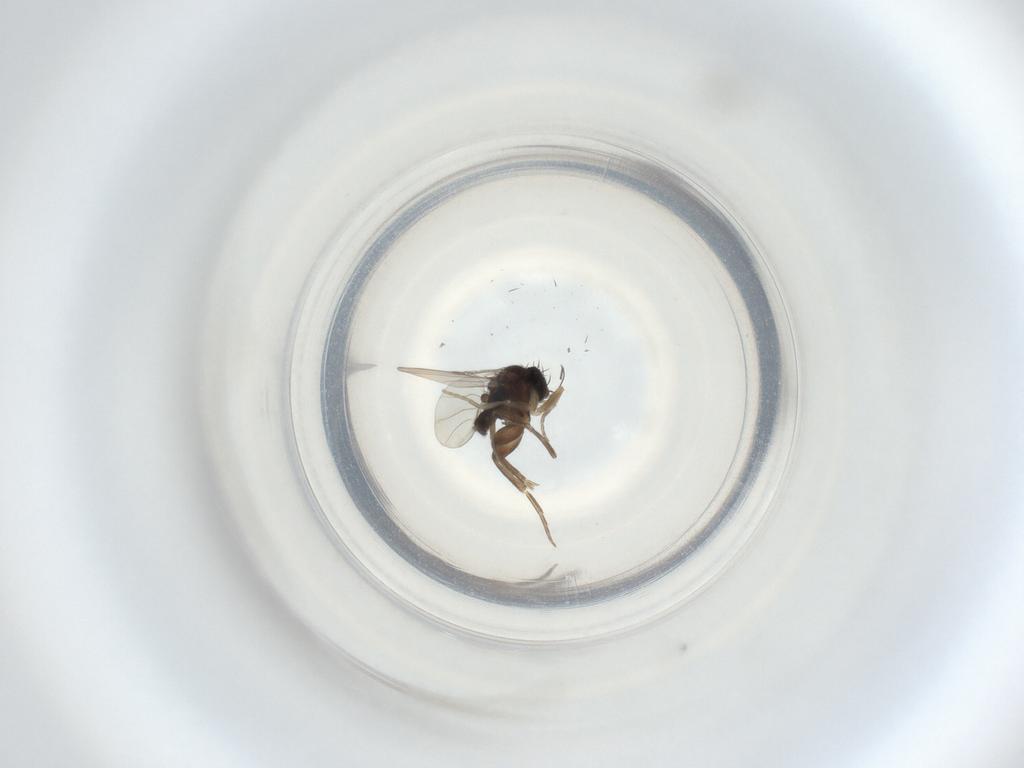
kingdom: Animalia
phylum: Arthropoda
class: Insecta
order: Diptera
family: Phoridae
